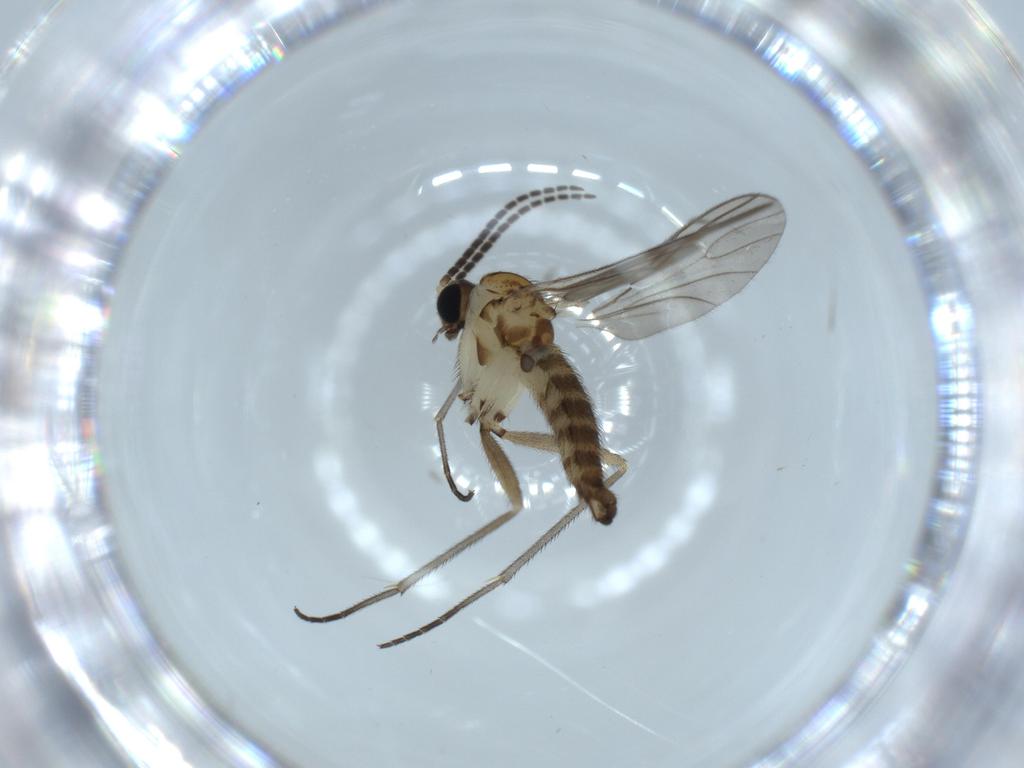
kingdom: Animalia
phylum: Arthropoda
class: Insecta
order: Diptera
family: Sciaridae
